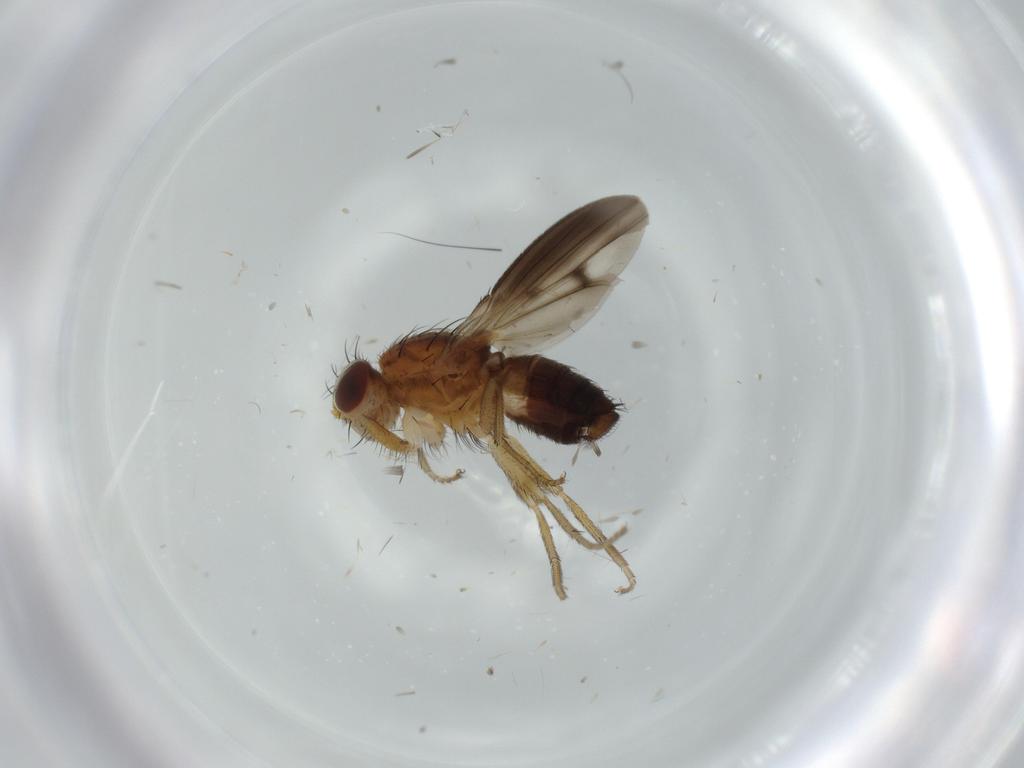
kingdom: Animalia
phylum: Arthropoda
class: Insecta
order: Diptera
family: Heleomyzidae
